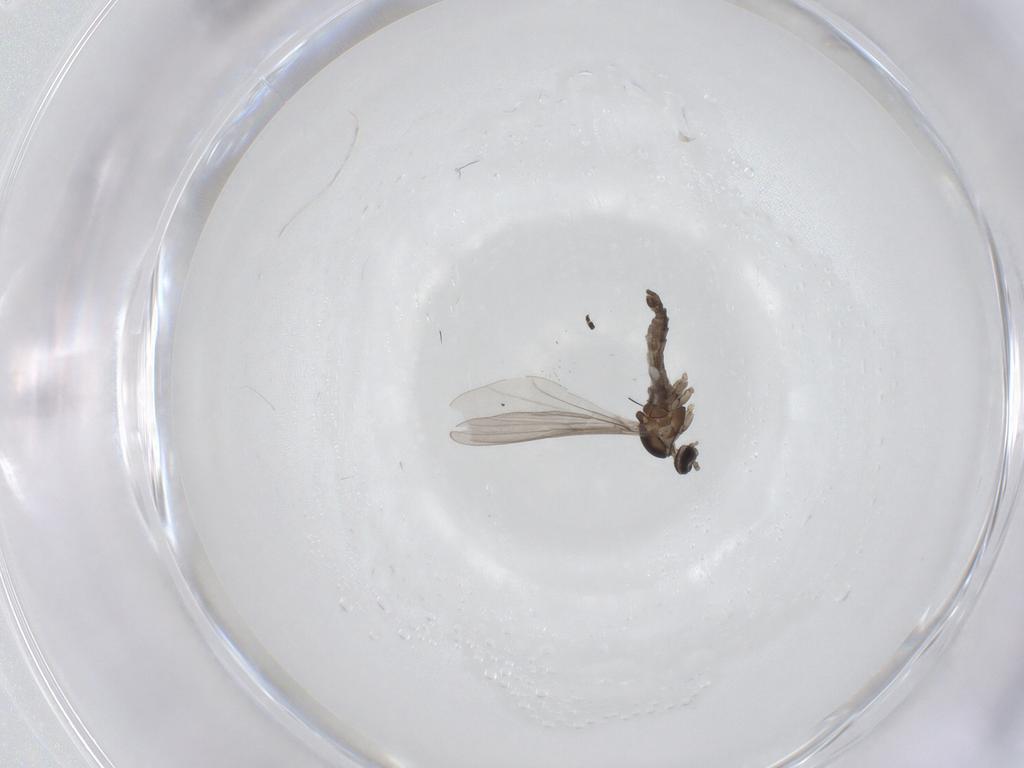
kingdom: Animalia
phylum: Arthropoda
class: Insecta
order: Diptera
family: Cecidomyiidae
